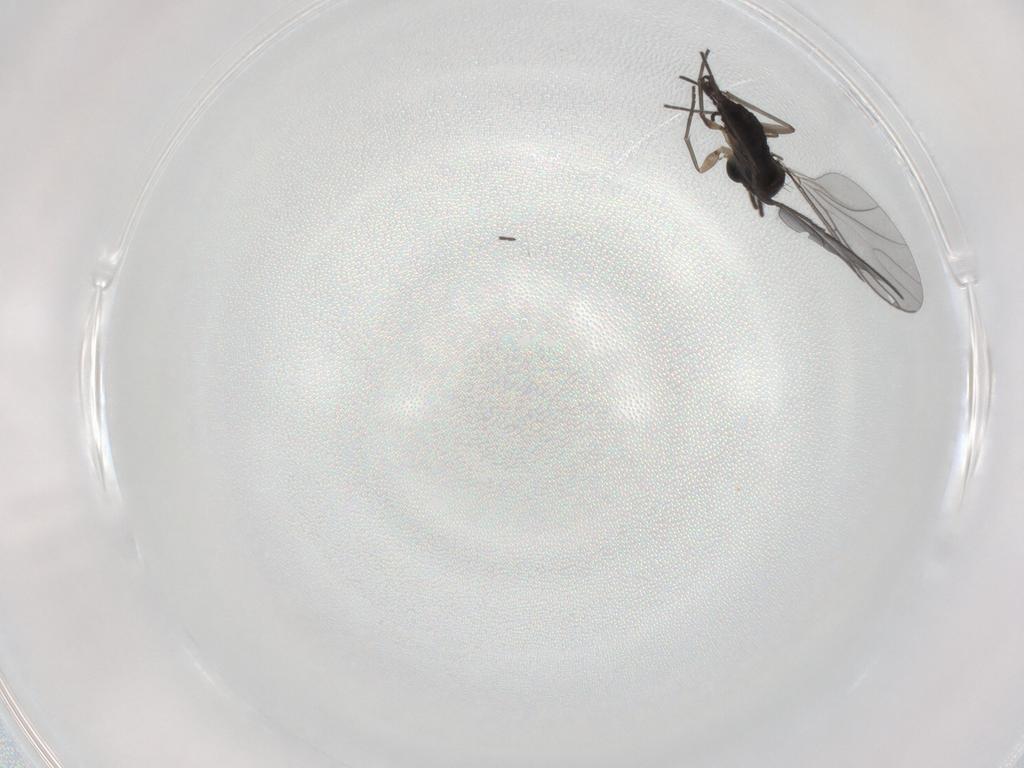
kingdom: Animalia
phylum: Arthropoda
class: Insecta
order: Diptera
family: Sciaridae
